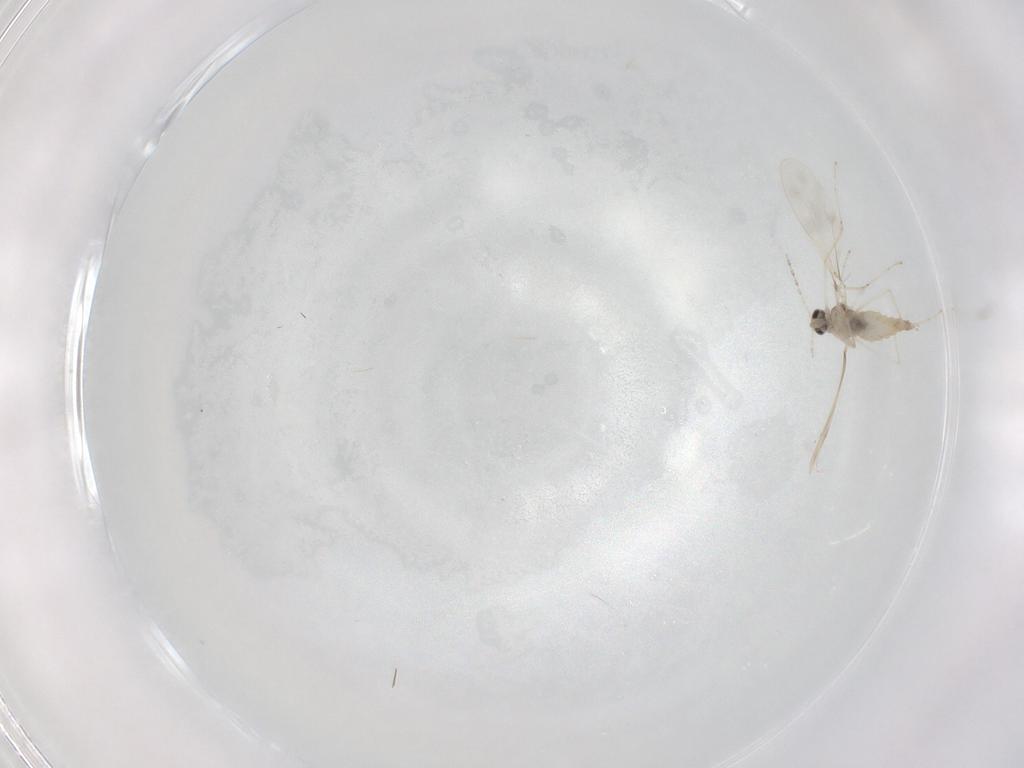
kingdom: Animalia
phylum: Arthropoda
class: Insecta
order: Diptera
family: Cecidomyiidae
